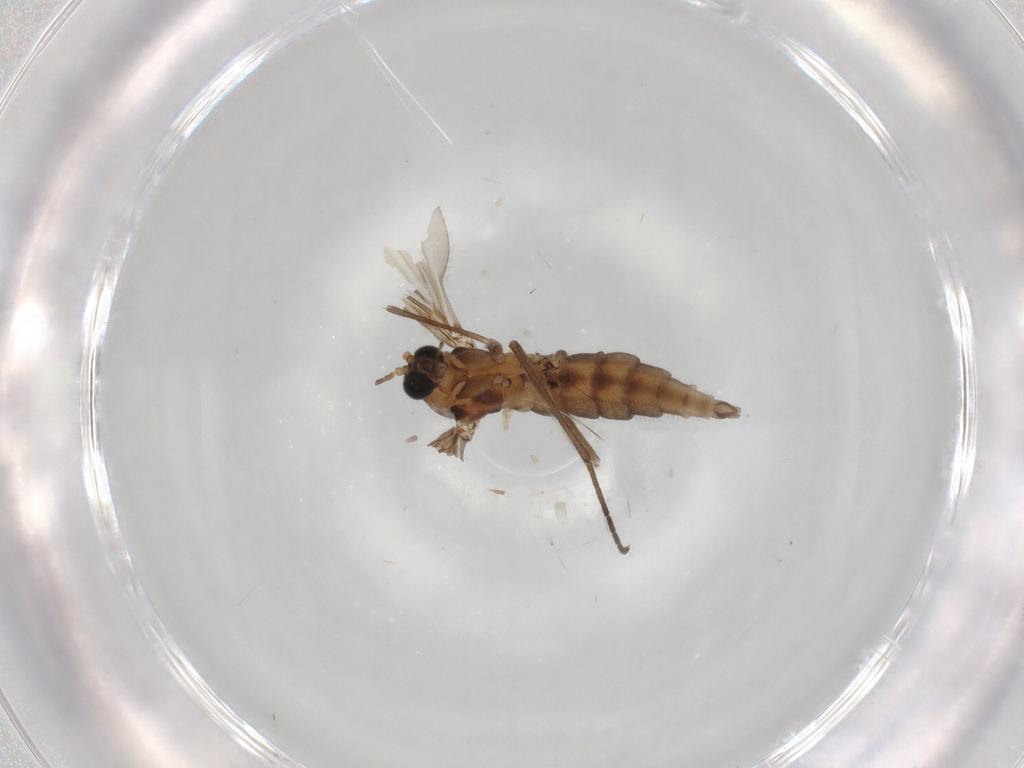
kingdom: Animalia
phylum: Arthropoda
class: Insecta
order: Diptera
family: Sciaridae
